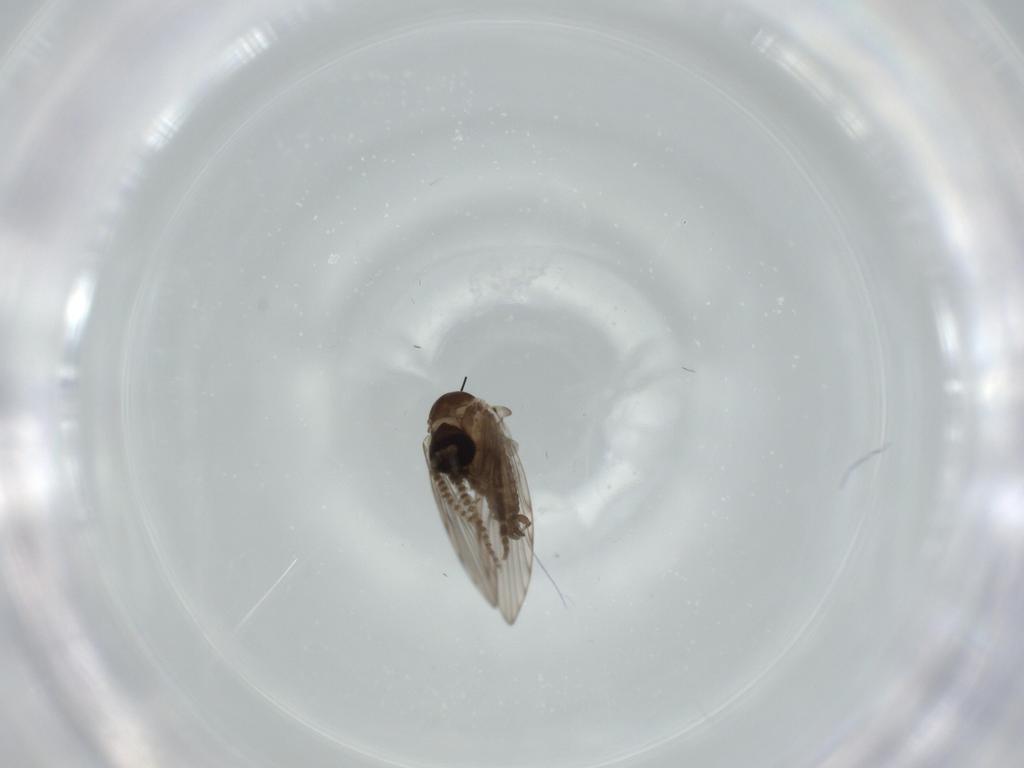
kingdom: Animalia
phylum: Arthropoda
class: Insecta
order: Diptera
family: Psychodidae
